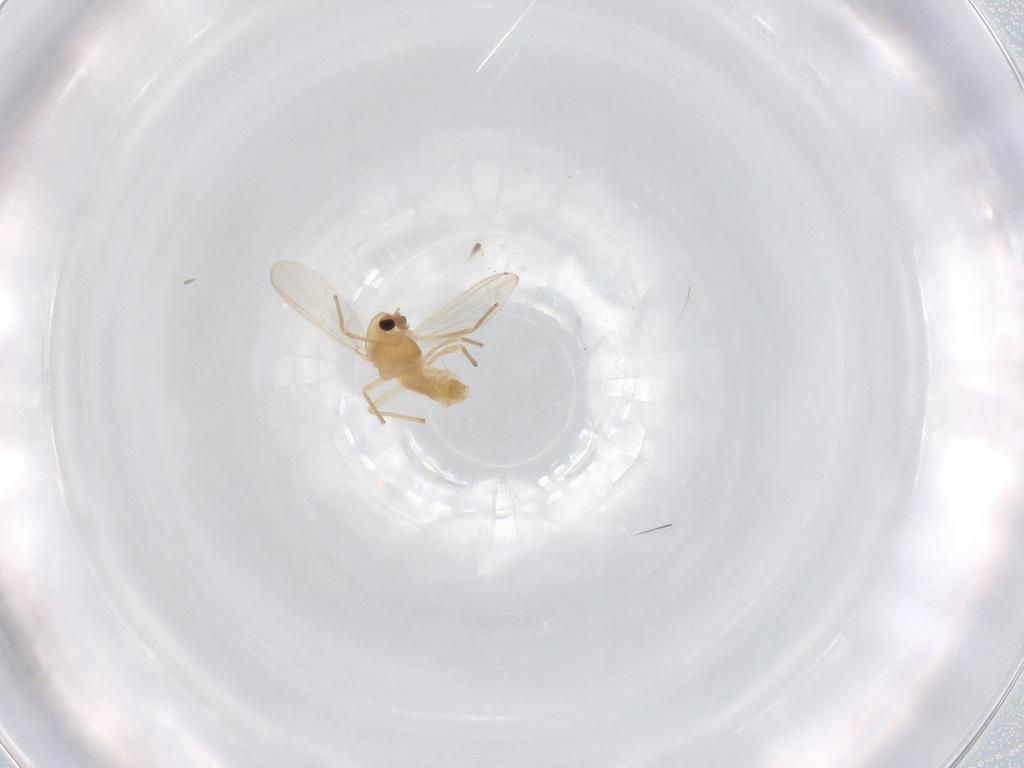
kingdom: Animalia
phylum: Arthropoda
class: Insecta
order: Diptera
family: Chironomidae
